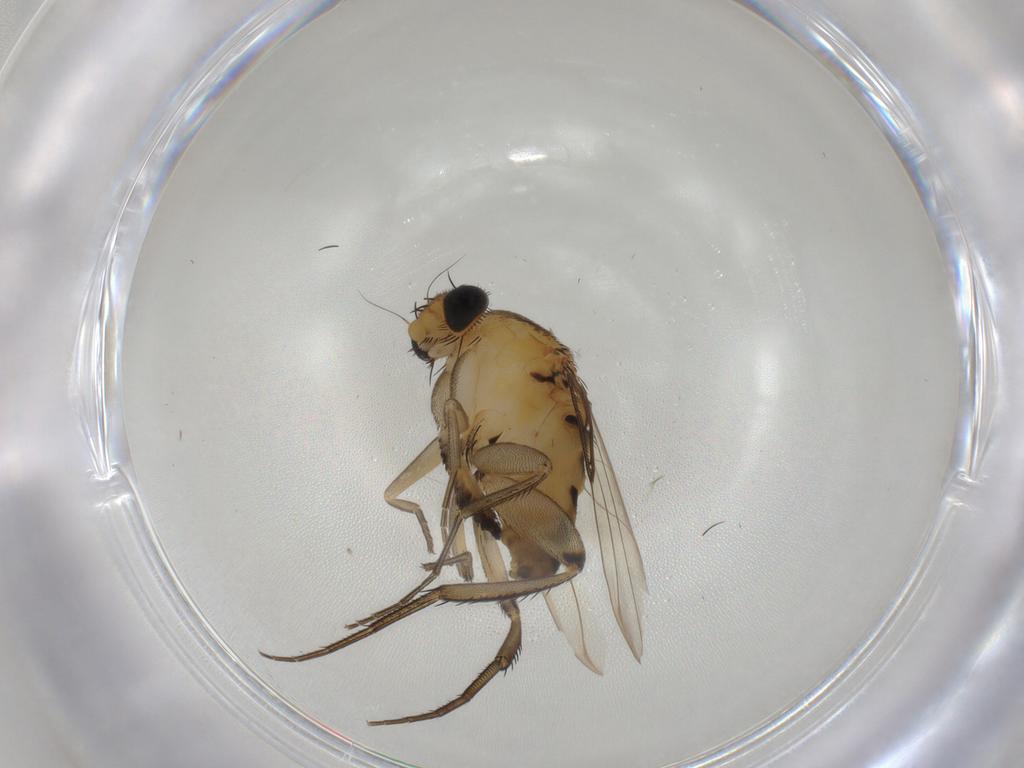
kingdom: Animalia
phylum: Arthropoda
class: Insecta
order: Diptera
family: Phoridae
